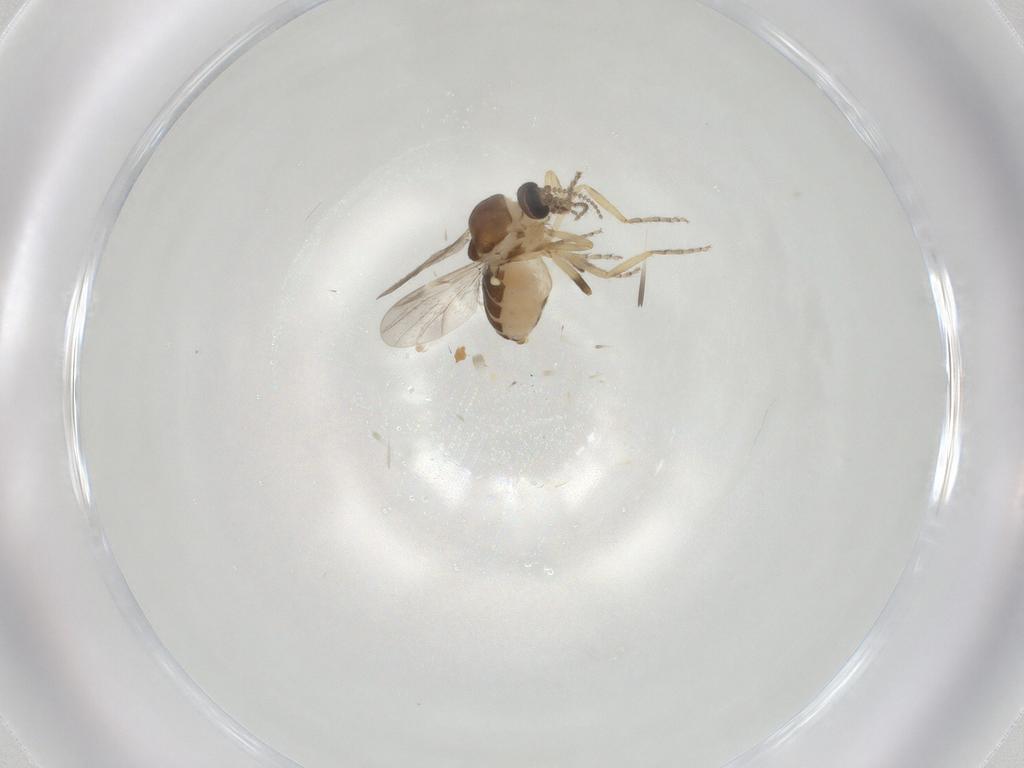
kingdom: Animalia
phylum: Arthropoda
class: Insecta
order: Diptera
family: Ceratopogonidae
